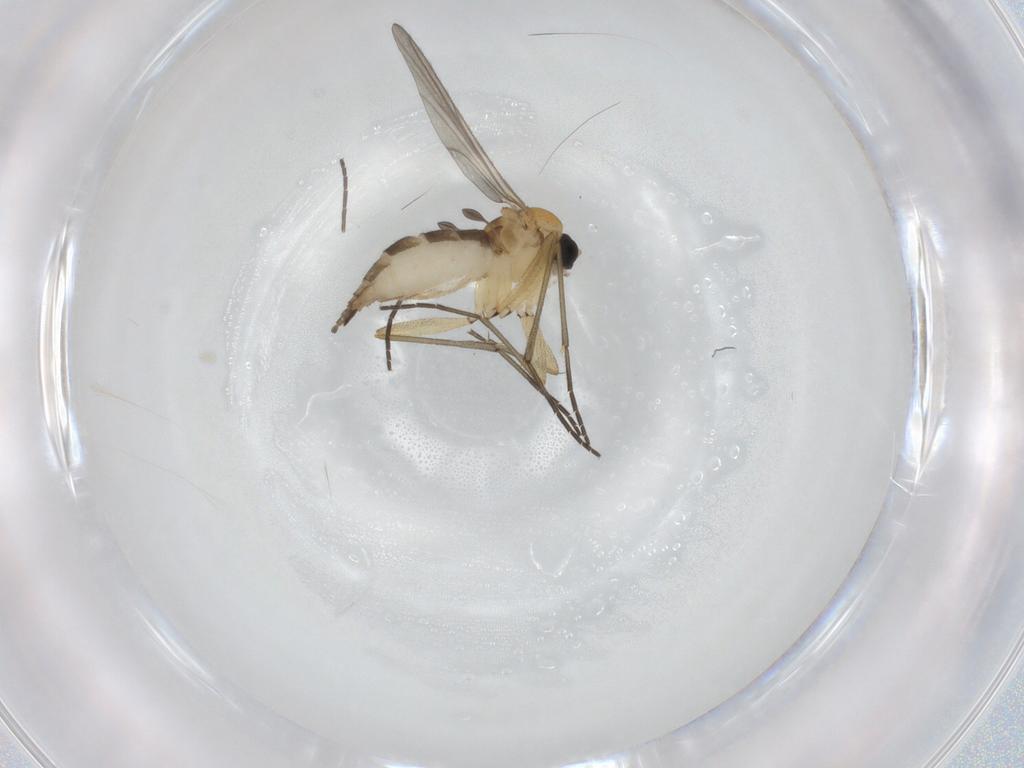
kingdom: Animalia
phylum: Arthropoda
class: Insecta
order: Diptera
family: Sciaridae
